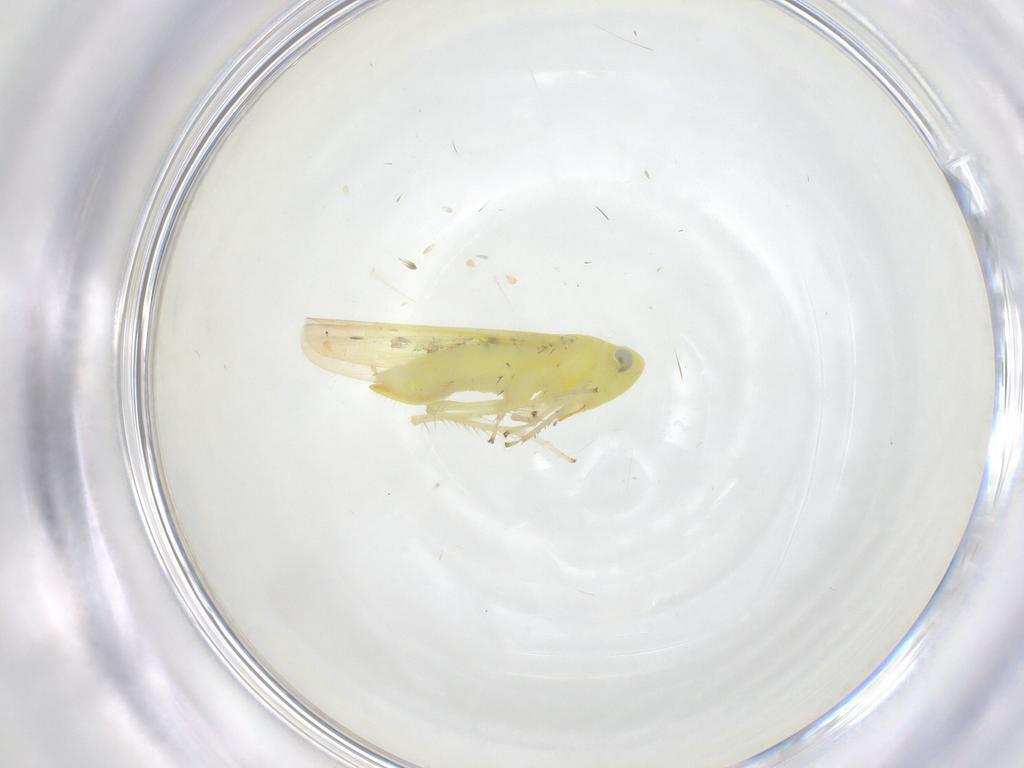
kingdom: Animalia
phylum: Arthropoda
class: Insecta
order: Hemiptera
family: Cicadellidae
